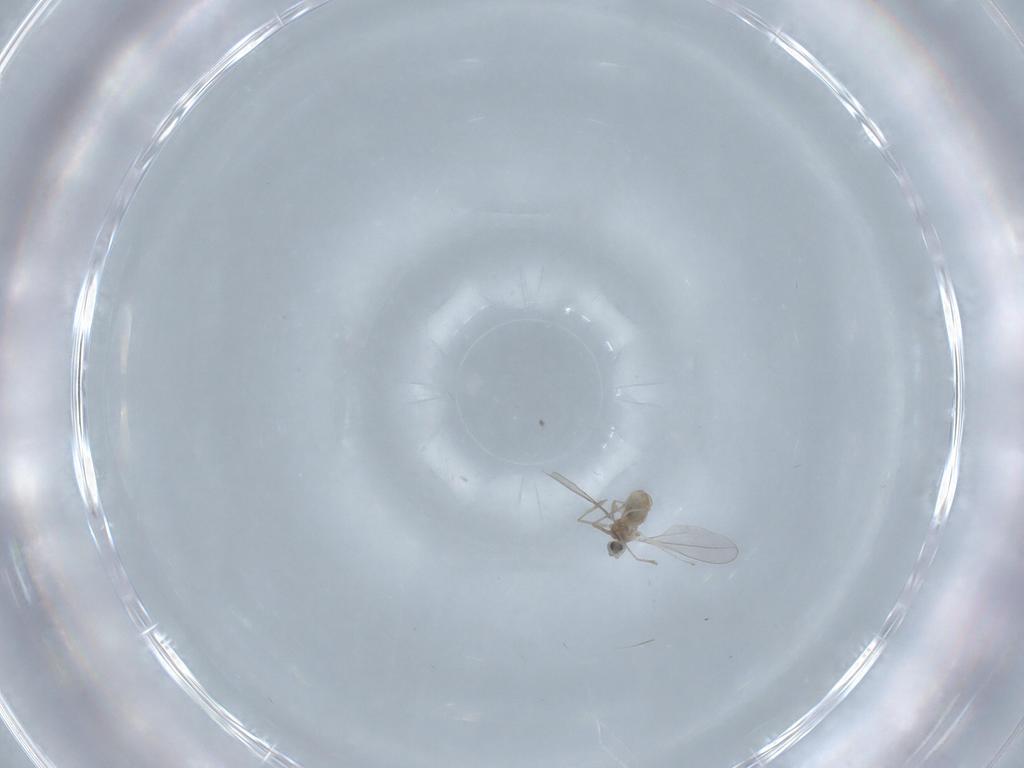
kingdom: Animalia
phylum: Arthropoda
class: Insecta
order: Diptera
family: Cecidomyiidae
